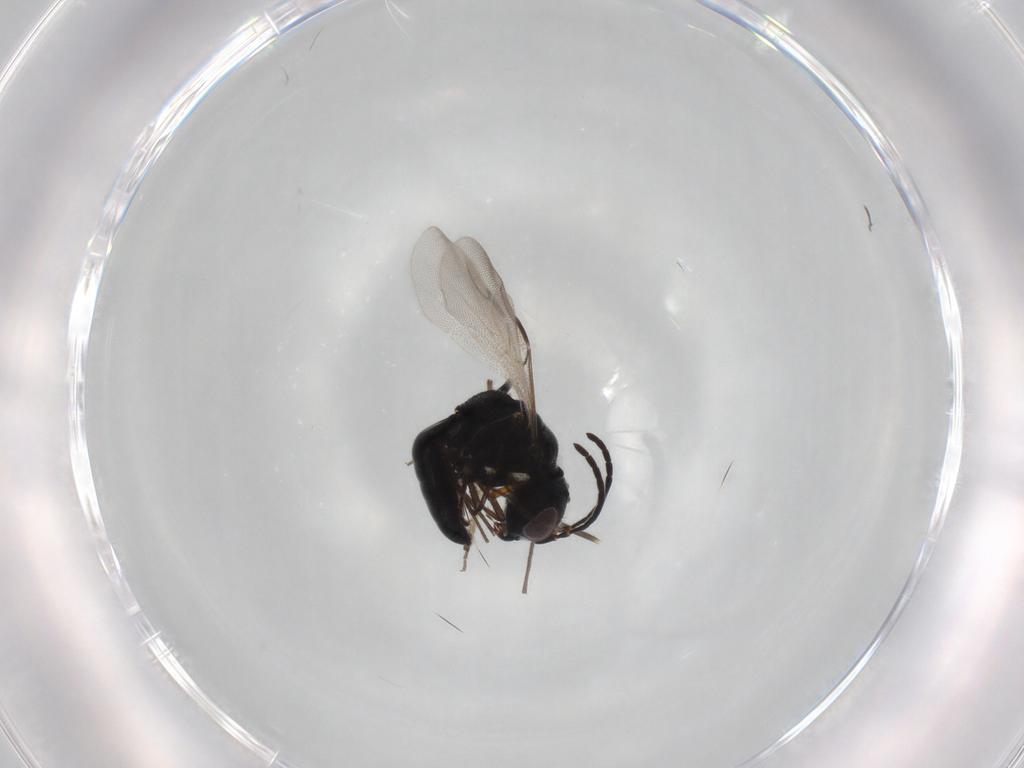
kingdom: Animalia
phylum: Arthropoda
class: Insecta
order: Hymenoptera
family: Dryinidae
